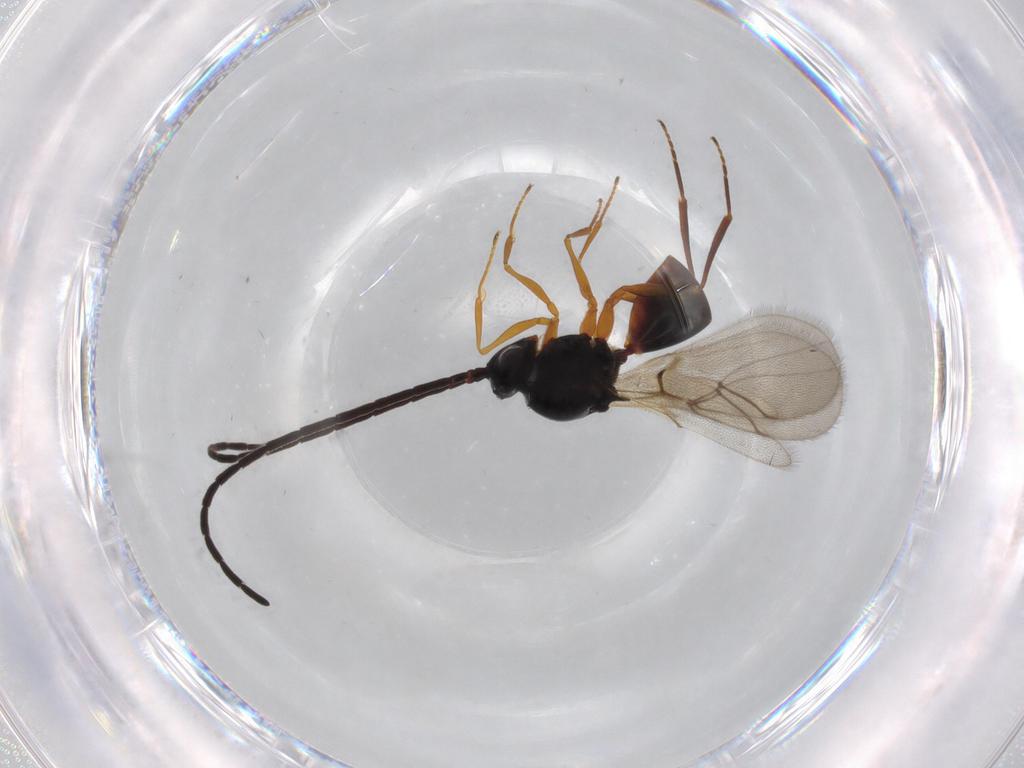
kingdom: Animalia
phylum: Arthropoda
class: Insecta
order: Hymenoptera
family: Figitidae
